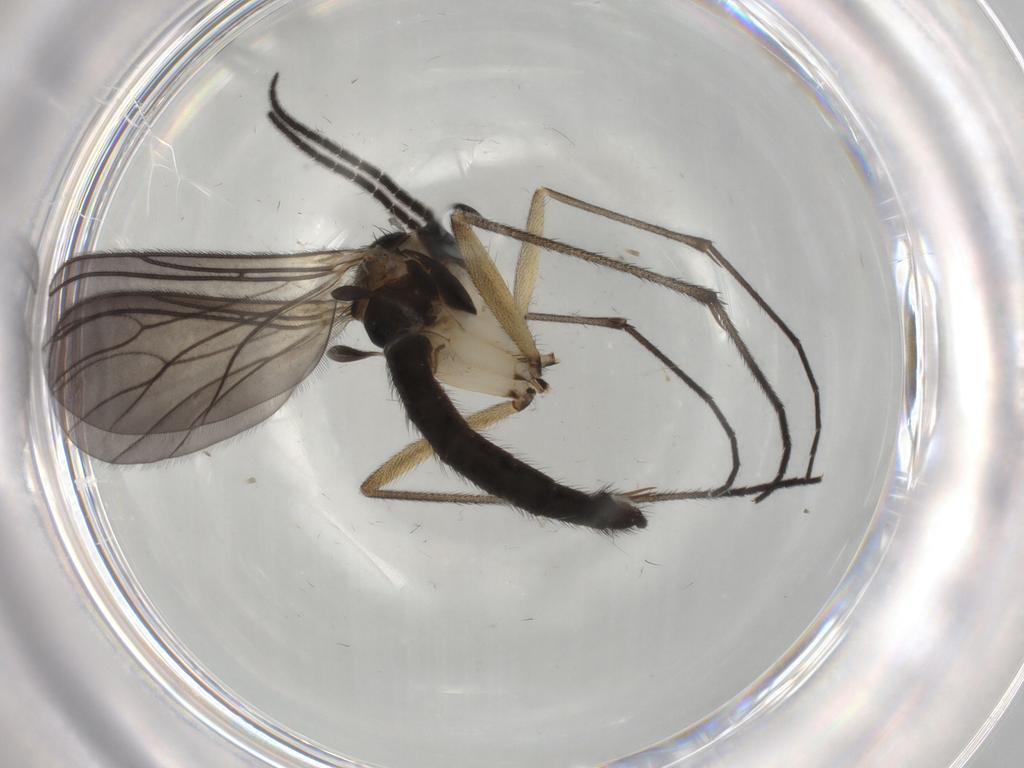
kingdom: Animalia
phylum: Arthropoda
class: Insecta
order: Diptera
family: Sciaridae
